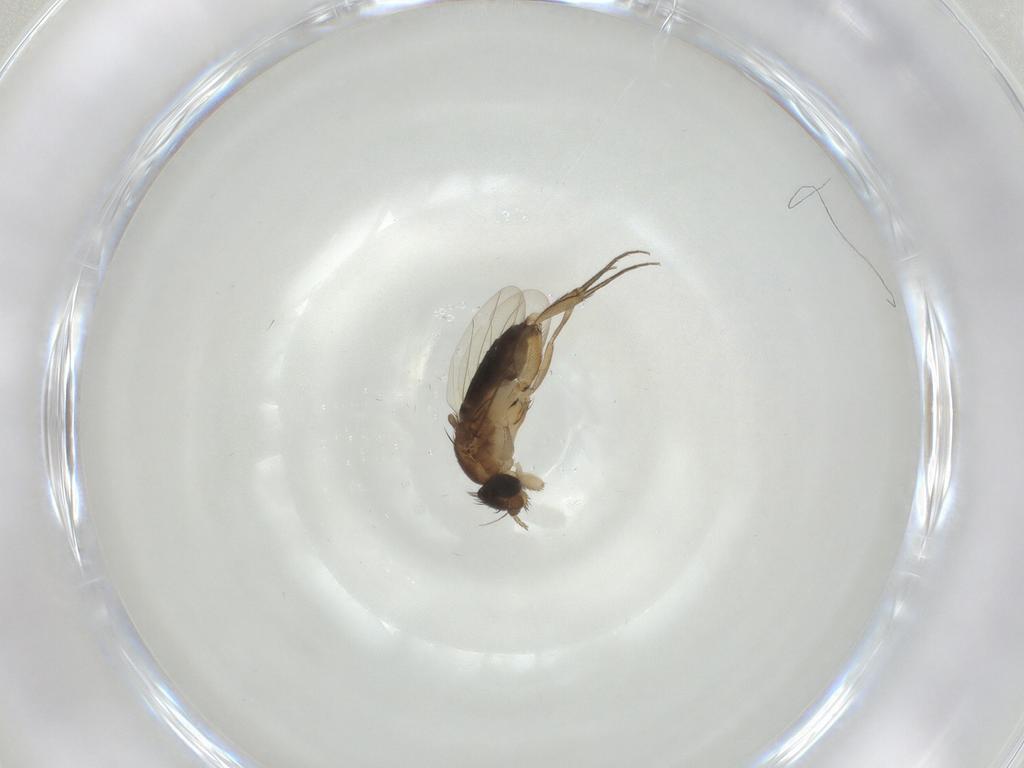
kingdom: Animalia
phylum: Arthropoda
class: Insecta
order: Diptera
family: Phoridae
